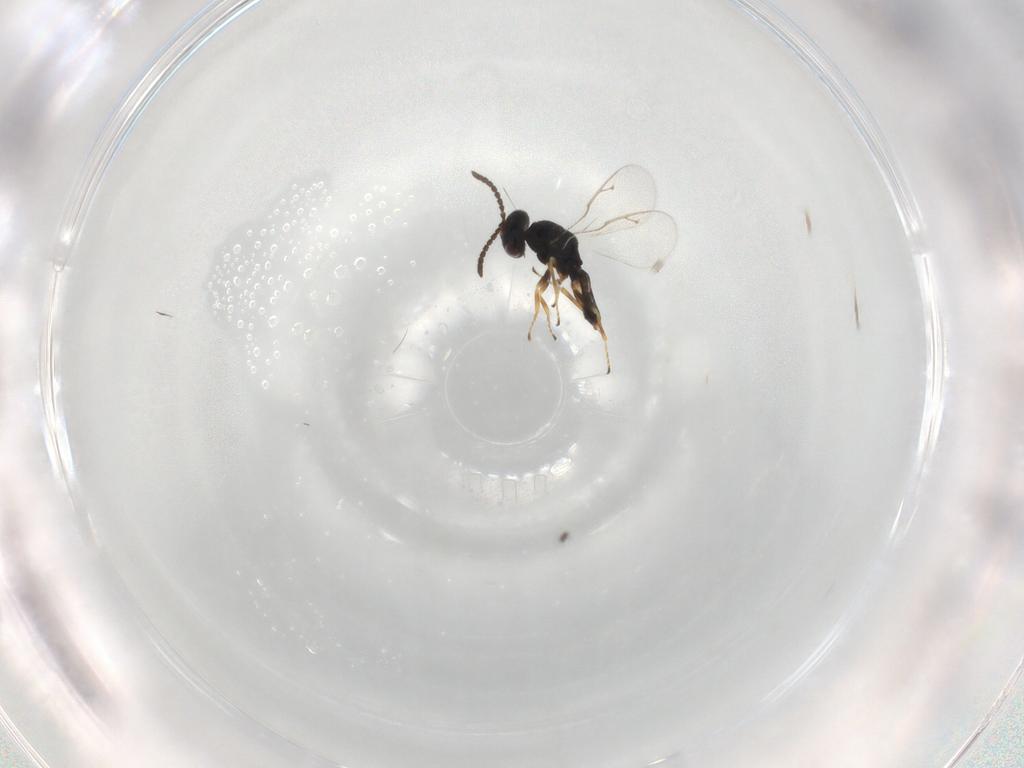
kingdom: Animalia
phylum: Arthropoda
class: Insecta
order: Hymenoptera
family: Pteromalidae
